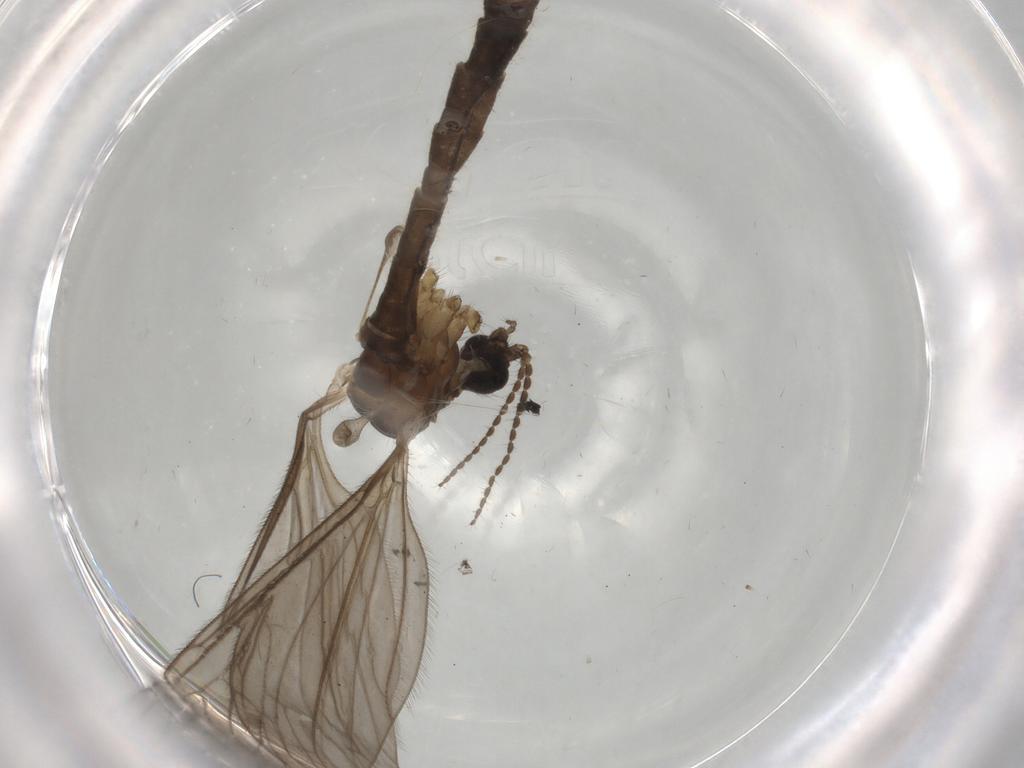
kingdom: Animalia
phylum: Arthropoda
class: Insecta
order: Diptera
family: Limoniidae
